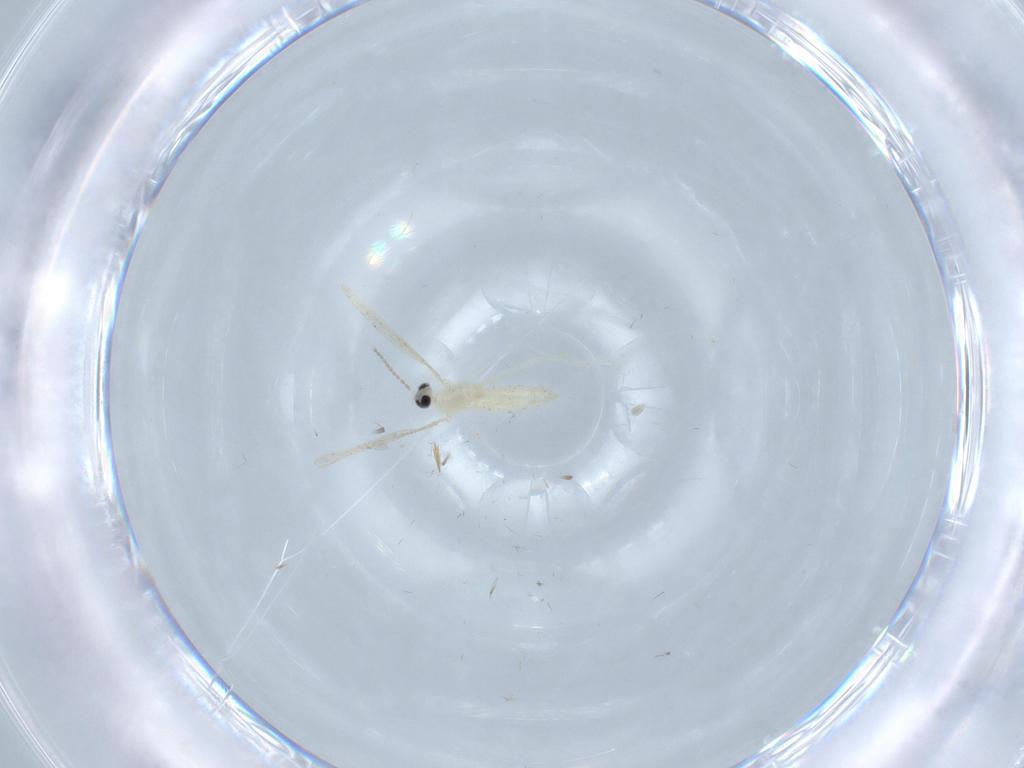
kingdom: Animalia
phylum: Arthropoda
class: Insecta
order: Diptera
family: Cecidomyiidae
